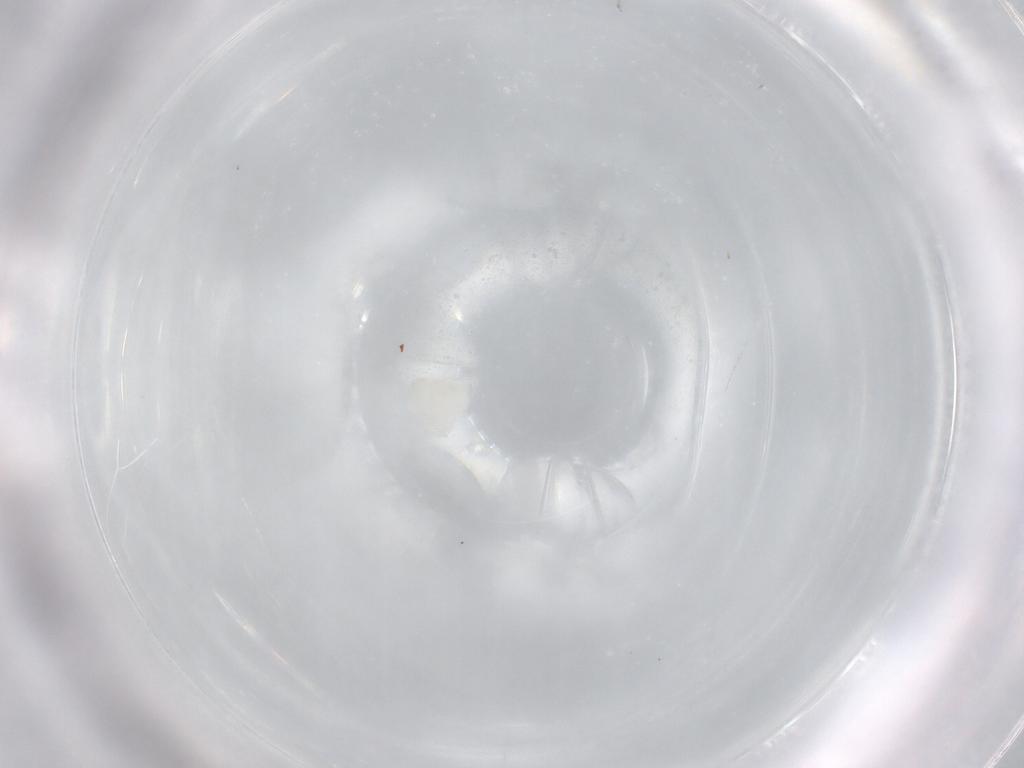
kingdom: Animalia
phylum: Arthropoda
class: Insecta
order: Diptera
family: Cecidomyiidae
